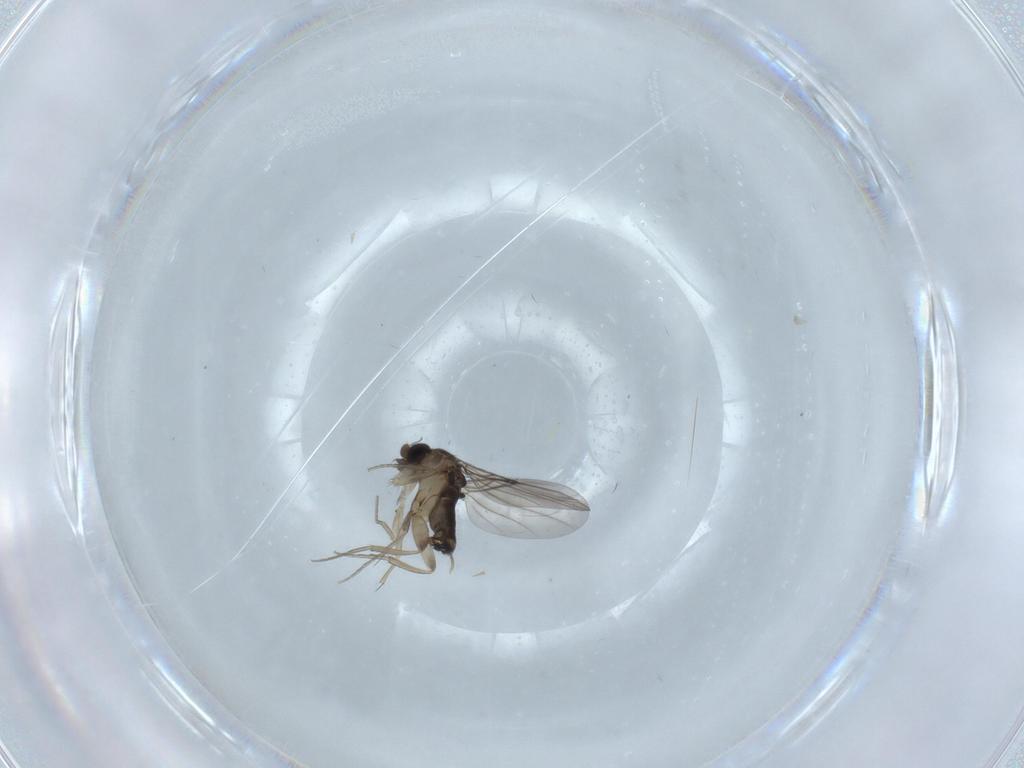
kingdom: Animalia
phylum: Arthropoda
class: Insecta
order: Diptera
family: Phoridae
